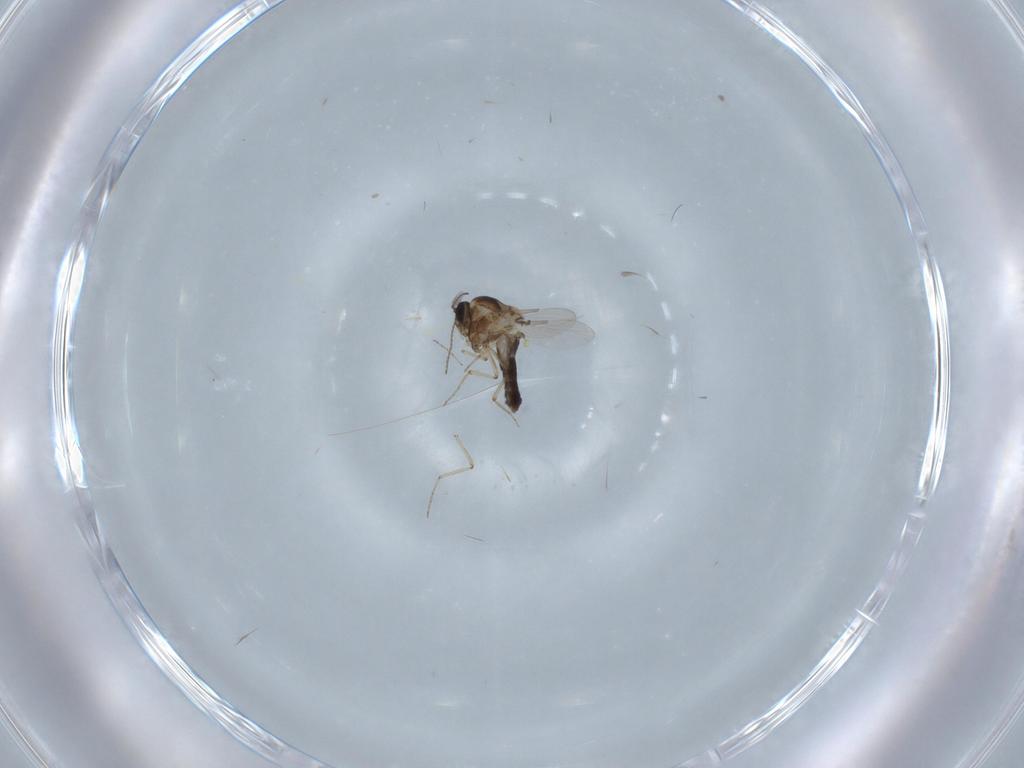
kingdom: Animalia
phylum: Arthropoda
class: Insecta
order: Diptera
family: Ceratopogonidae
